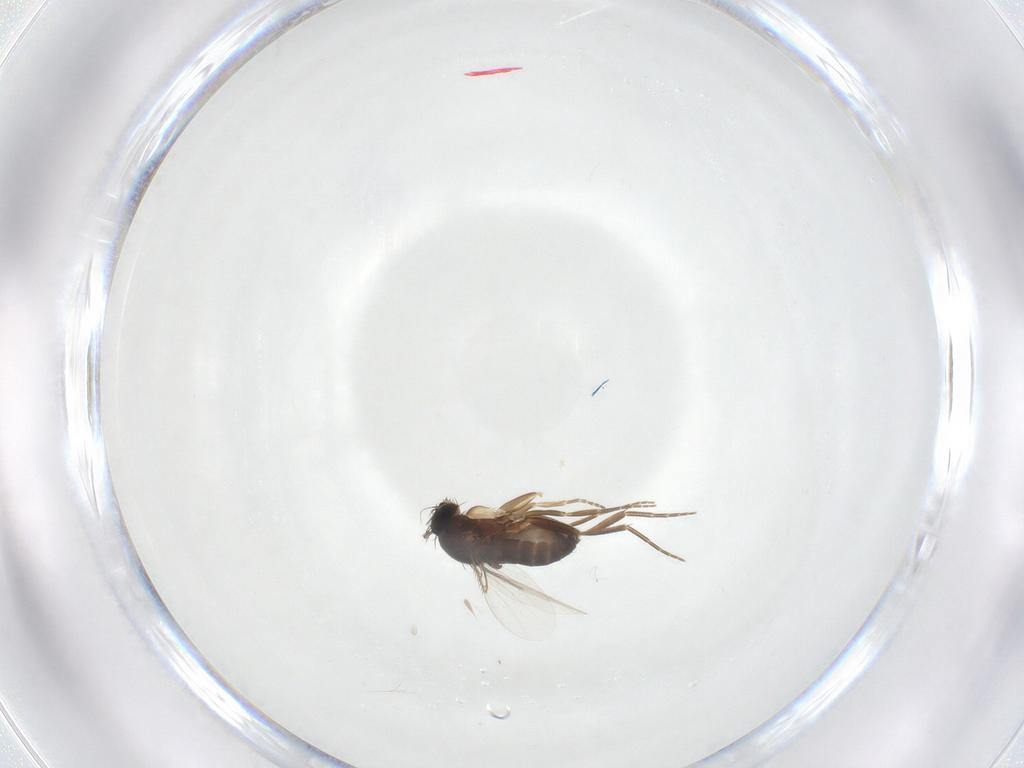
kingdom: Animalia
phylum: Arthropoda
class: Insecta
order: Diptera
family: Phoridae
